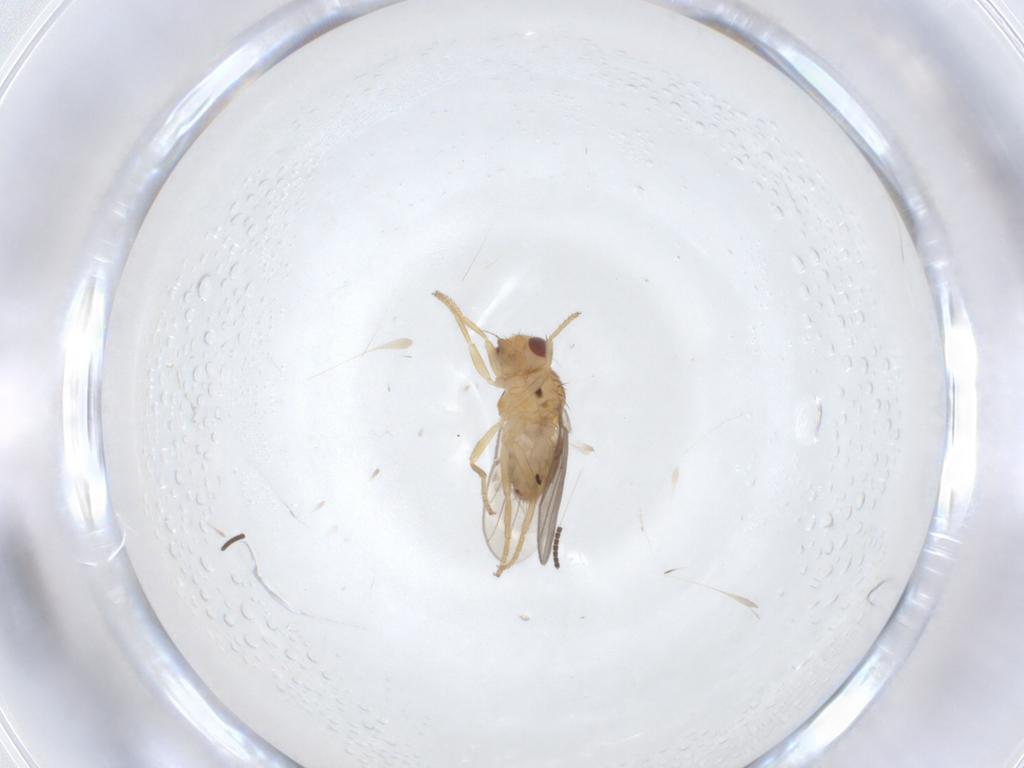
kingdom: Animalia
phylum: Arthropoda
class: Insecta
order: Diptera
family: Chloropidae
